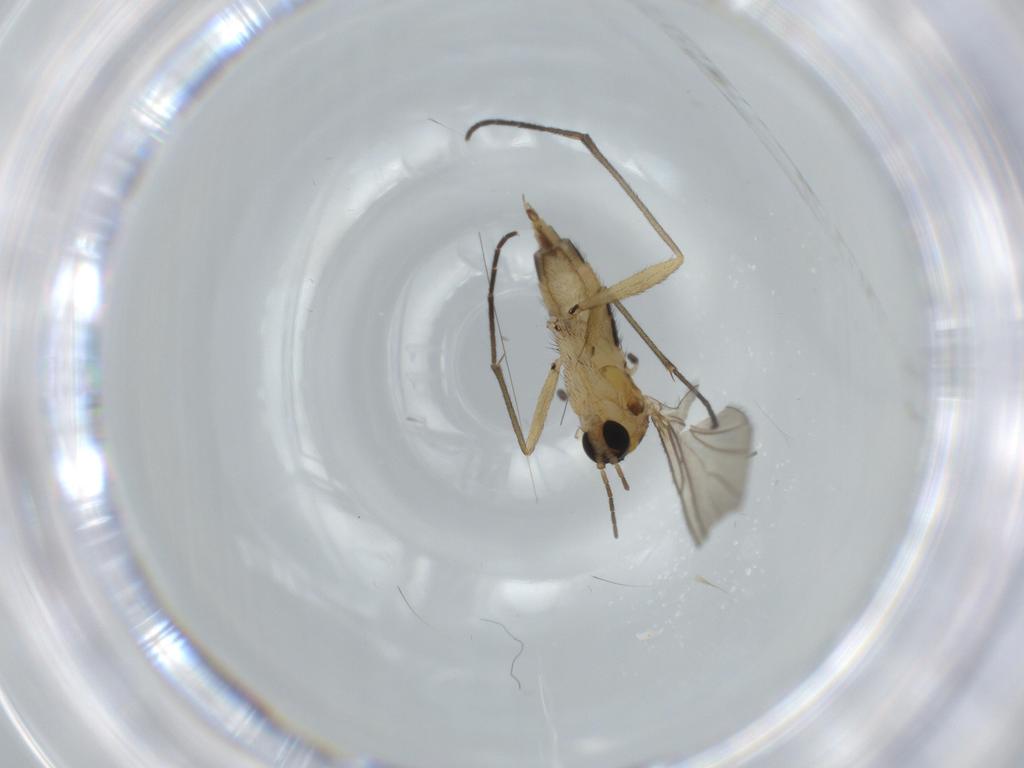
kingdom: Animalia
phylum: Arthropoda
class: Insecta
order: Diptera
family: Sciaridae
